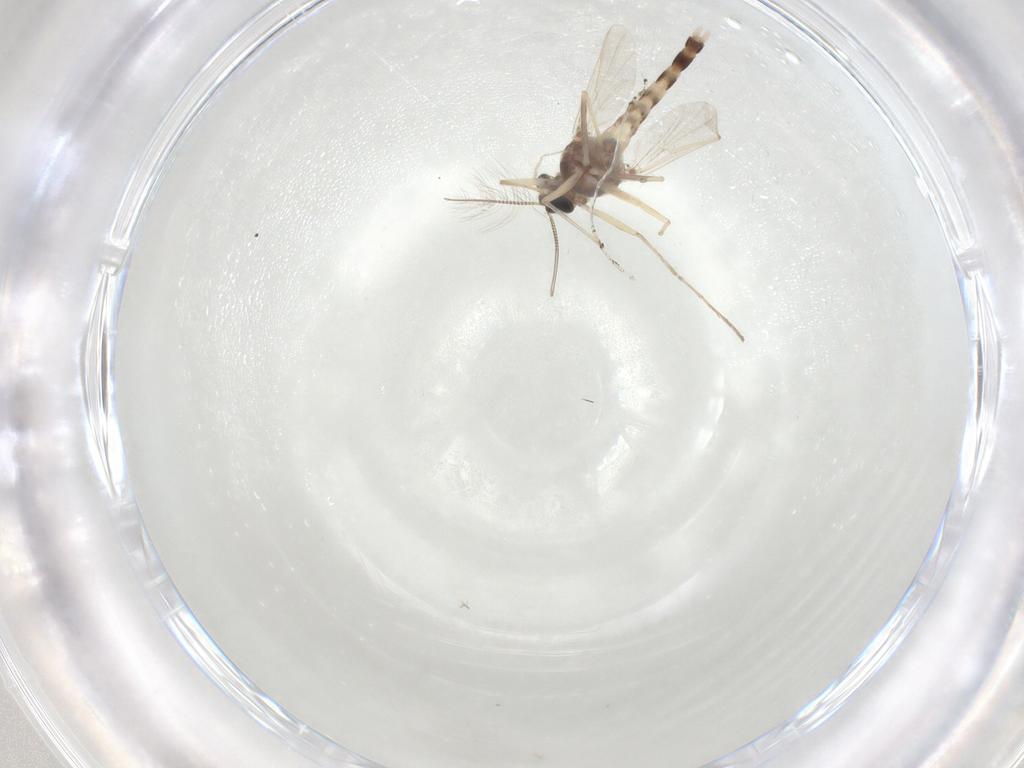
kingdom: Animalia
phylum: Arthropoda
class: Insecta
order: Diptera
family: Chironomidae
